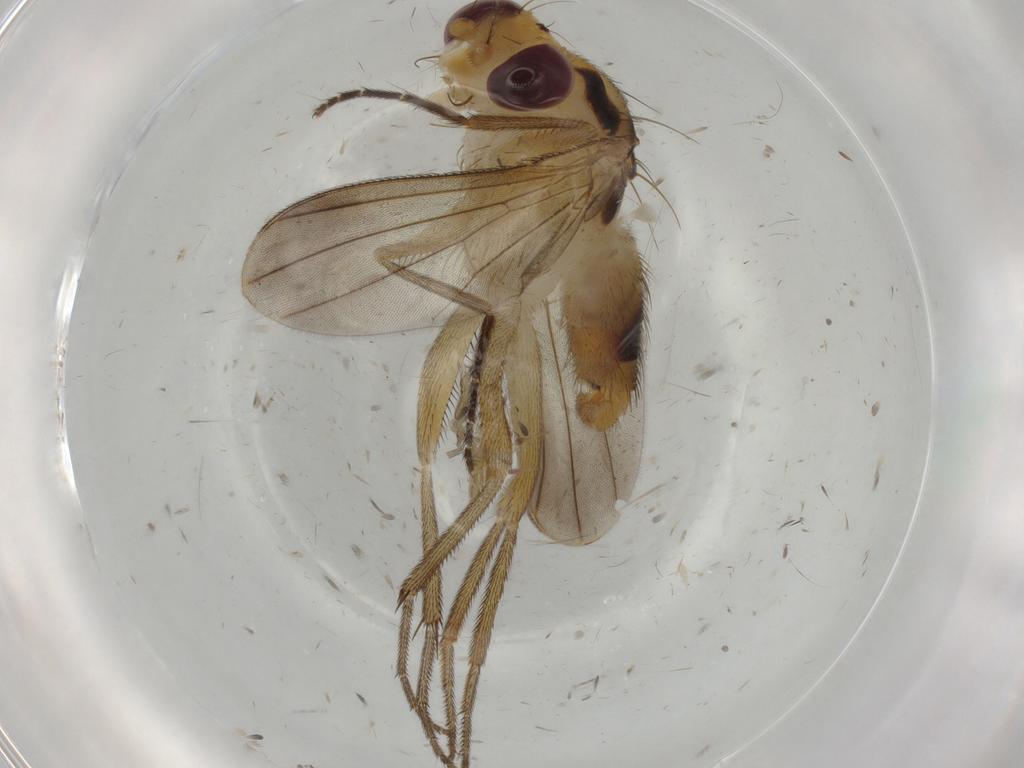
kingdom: Animalia
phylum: Arthropoda
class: Insecta
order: Diptera
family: Clusiidae
